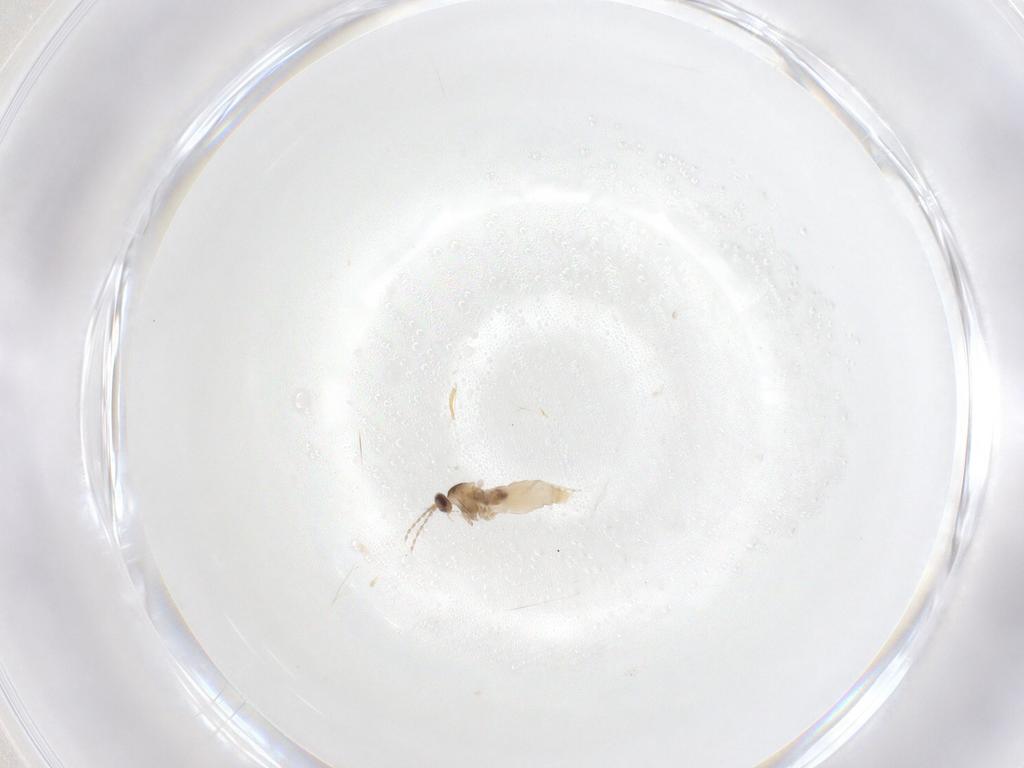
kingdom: Animalia
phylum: Arthropoda
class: Insecta
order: Diptera
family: Cecidomyiidae
